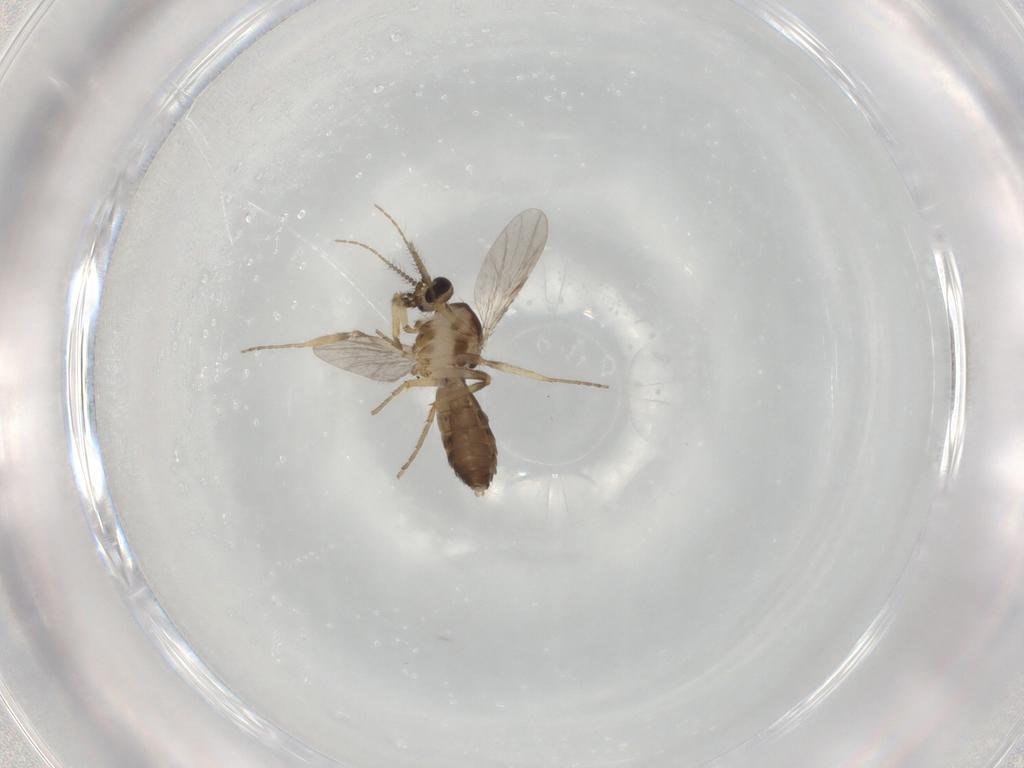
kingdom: Animalia
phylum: Arthropoda
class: Insecta
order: Diptera
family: Ceratopogonidae
